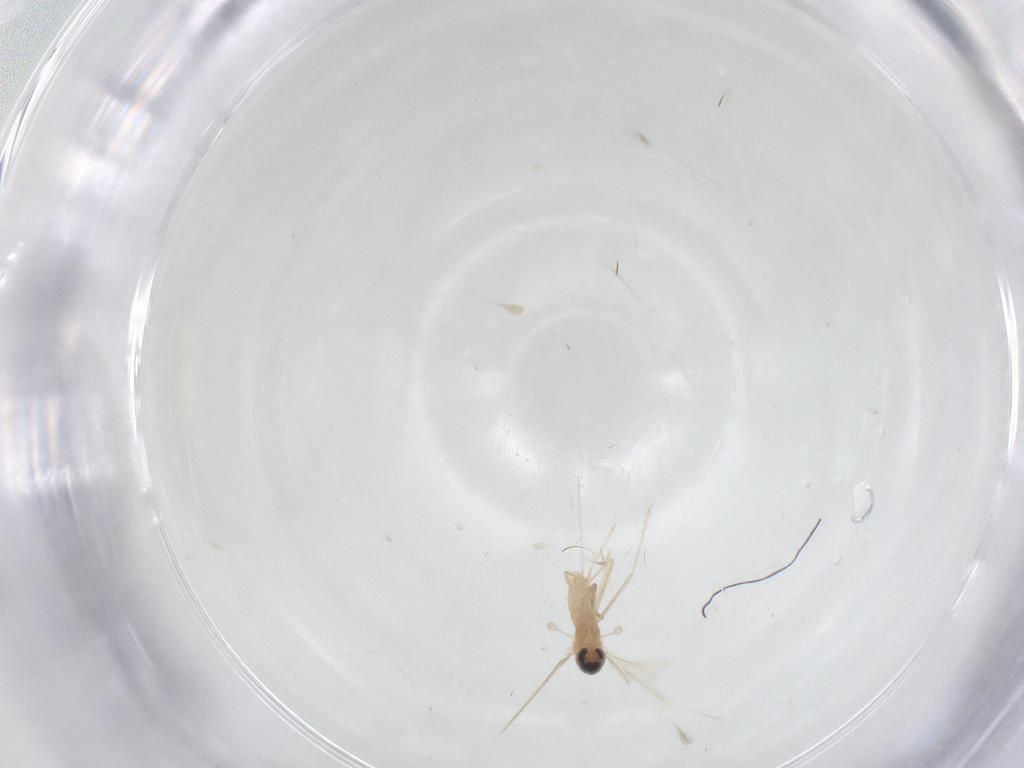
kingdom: Animalia
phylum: Arthropoda
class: Insecta
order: Diptera
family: Cecidomyiidae
